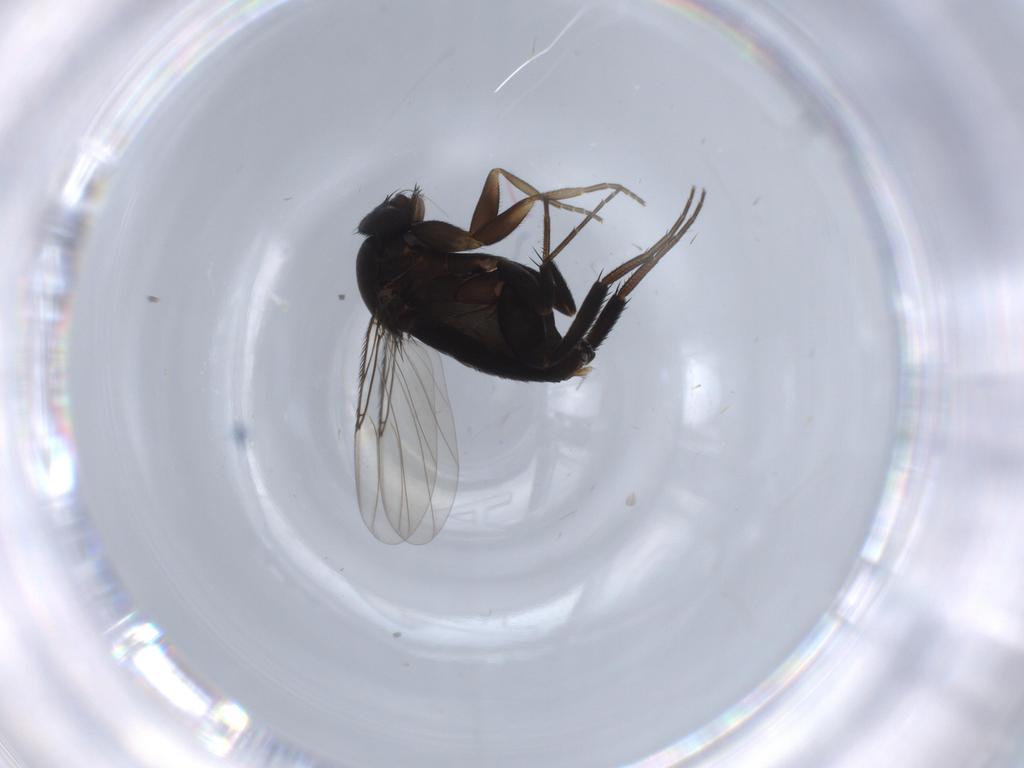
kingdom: Animalia
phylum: Arthropoda
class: Insecta
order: Diptera
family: Phoridae
